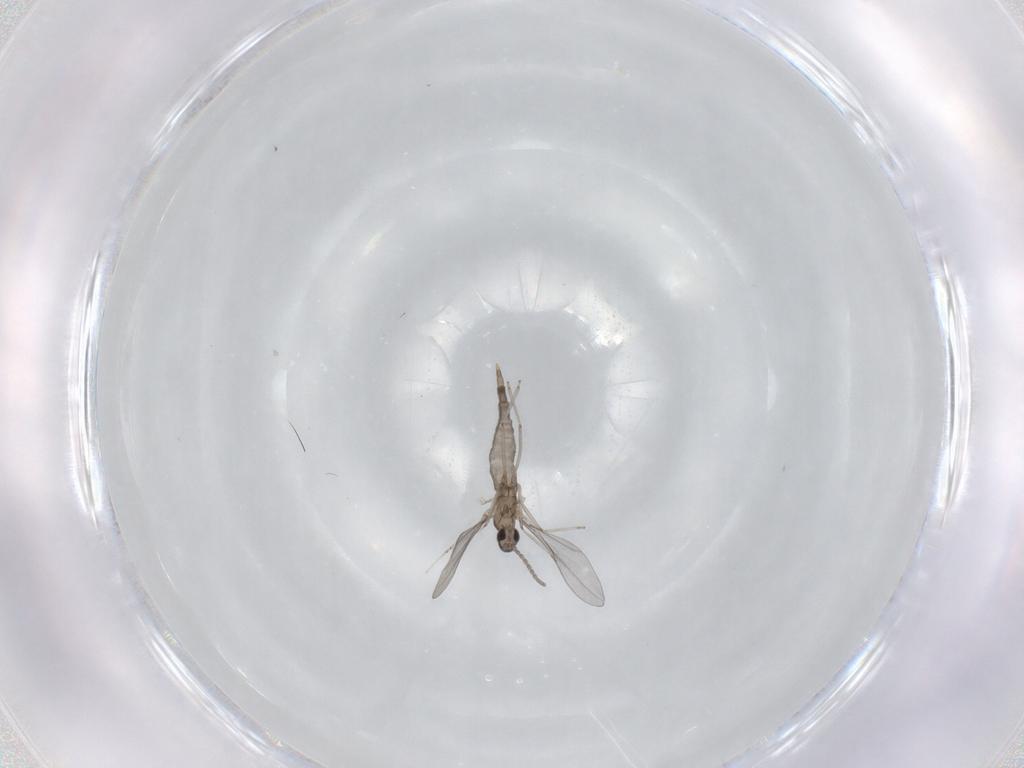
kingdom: Animalia
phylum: Arthropoda
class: Insecta
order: Diptera
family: Cecidomyiidae
